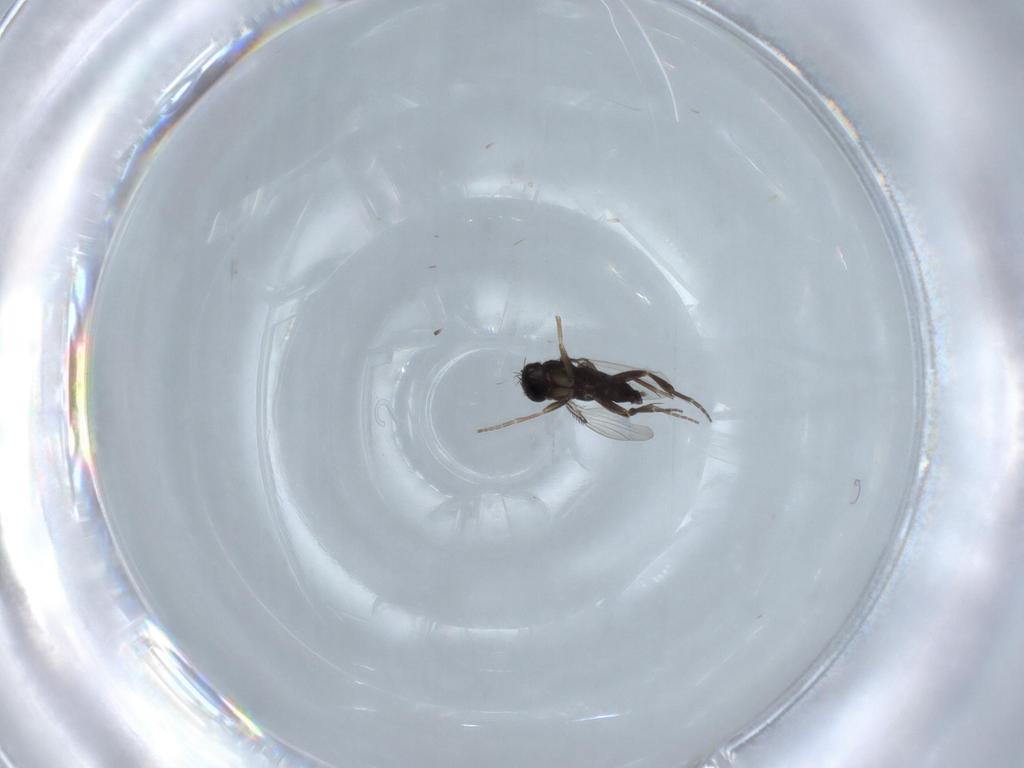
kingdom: Animalia
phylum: Arthropoda
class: Insecta
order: Diptera
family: Phoridae
